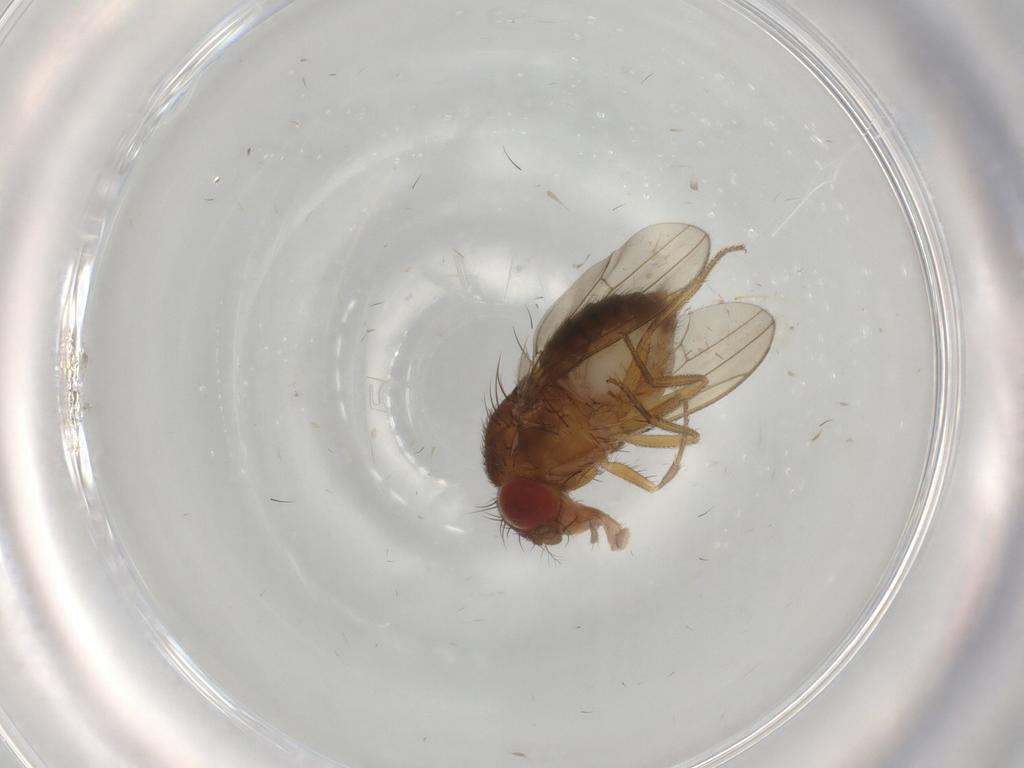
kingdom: Animalia
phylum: Arthropoda
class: Insecta
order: Diptera
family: Drosophilidae
